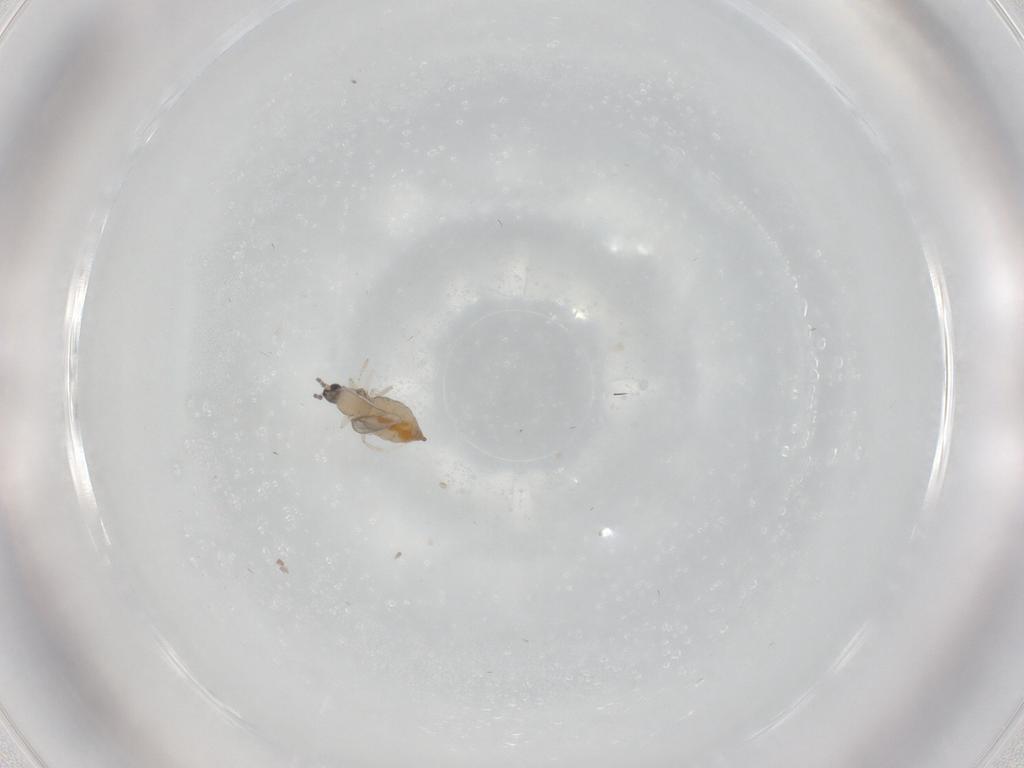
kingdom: Animalia
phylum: Arthropoda
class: Insecta
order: Diptera
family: Cecidomyiidae
